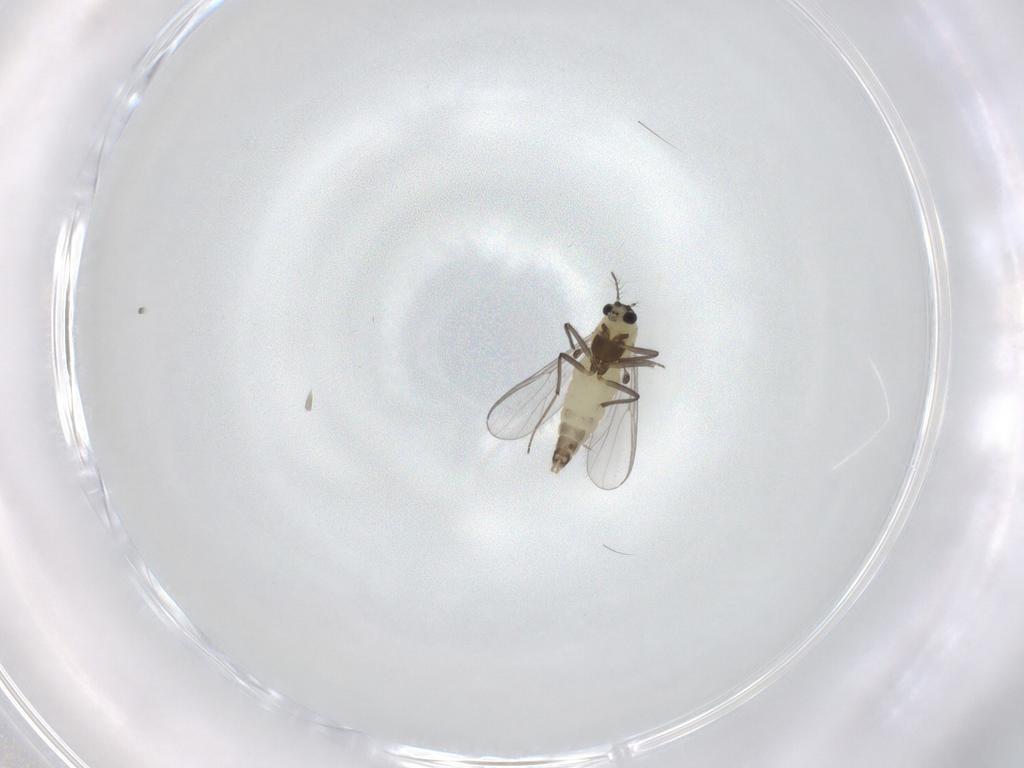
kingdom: Animalia
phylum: Arthropoda
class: Insecta
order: Diptera
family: Chironomidae
